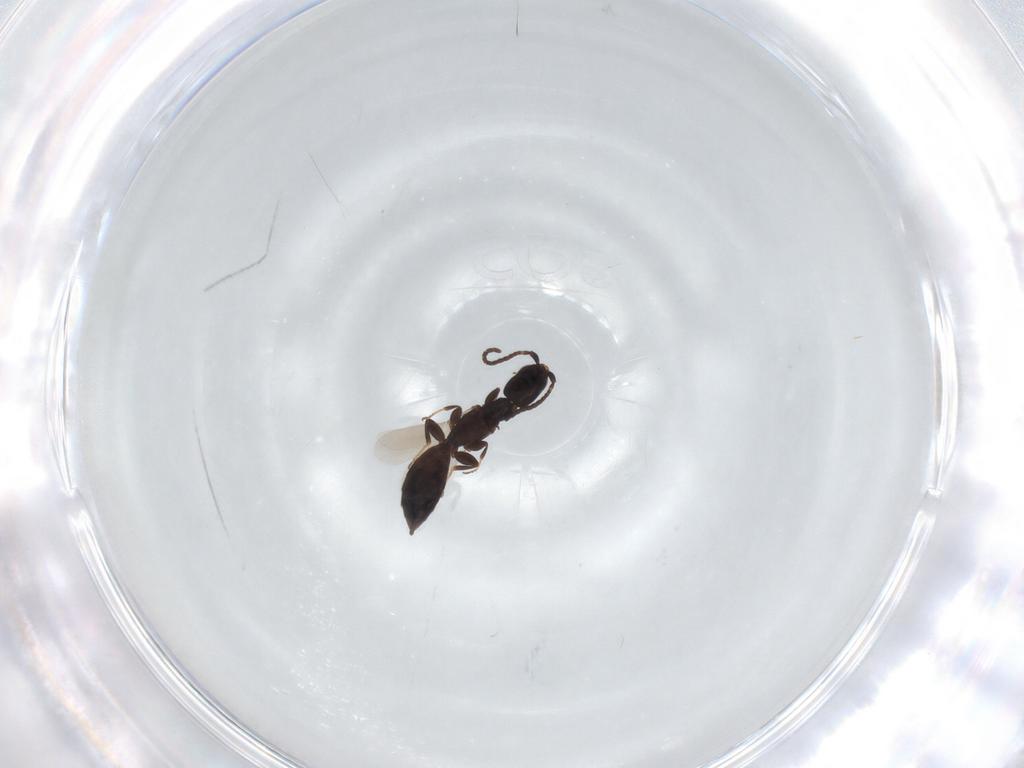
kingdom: Animalia
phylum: Arthropoda
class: Insecta
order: Hymenoptera
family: Bethylidae
